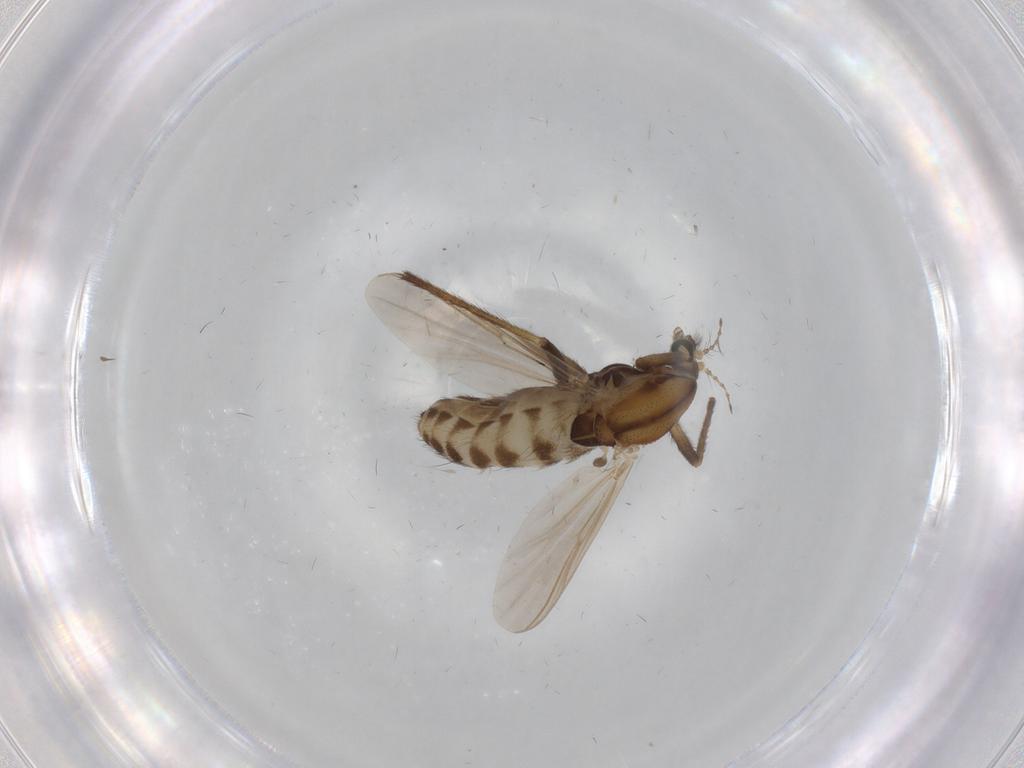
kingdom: Animalia
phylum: Arthropoda
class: Insecta
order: Diptera
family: Chironomidae
